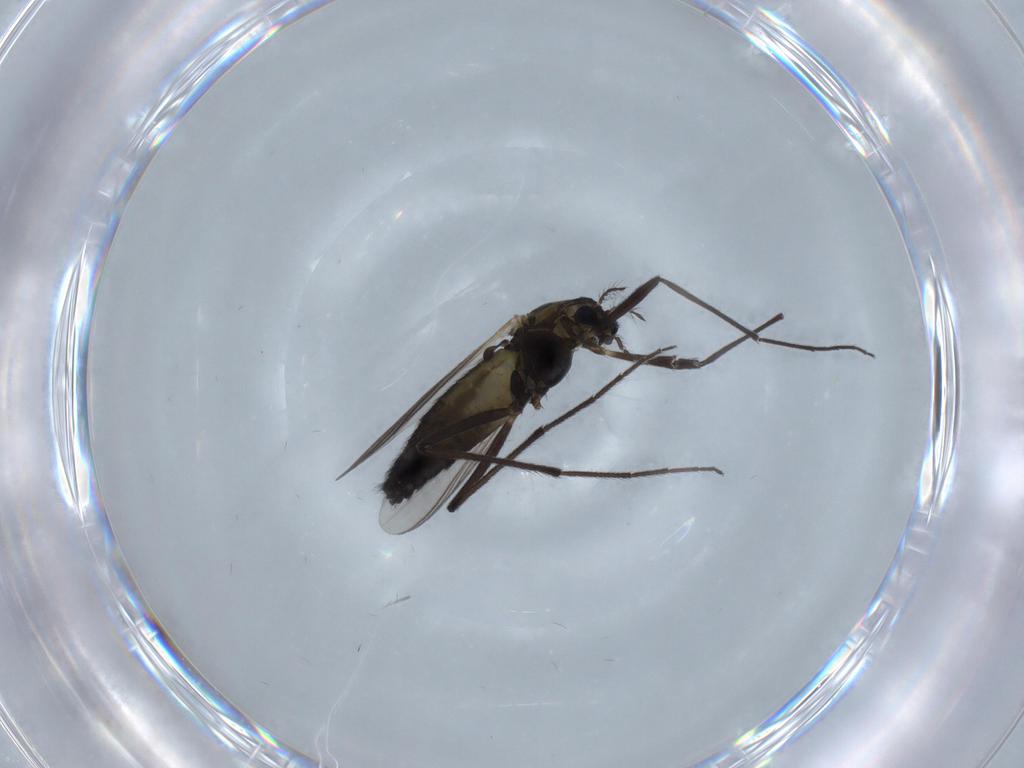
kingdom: Animalia
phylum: Arthropoda
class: Insecta
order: Diptera
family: Chironomidae
